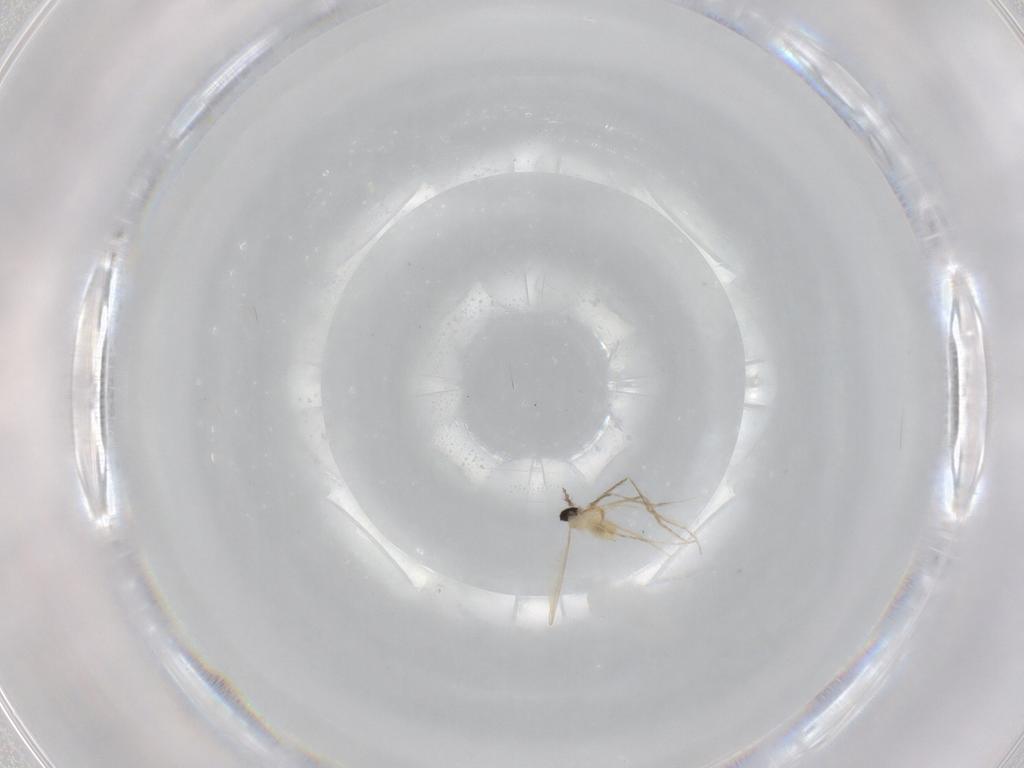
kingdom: Animalia
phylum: Arthropoda
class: Insecta
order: Diptera
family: Cecidomyiidae
